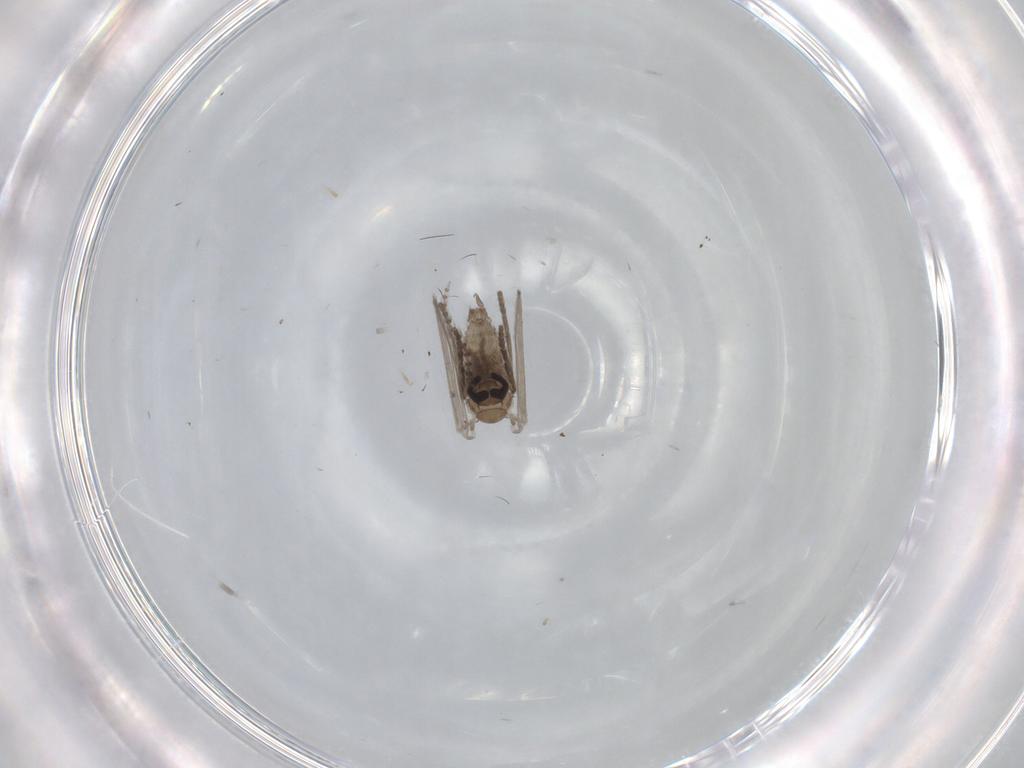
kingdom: Animalia
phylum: Arthropoda
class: Insecta
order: Diptera
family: Psychodidae
